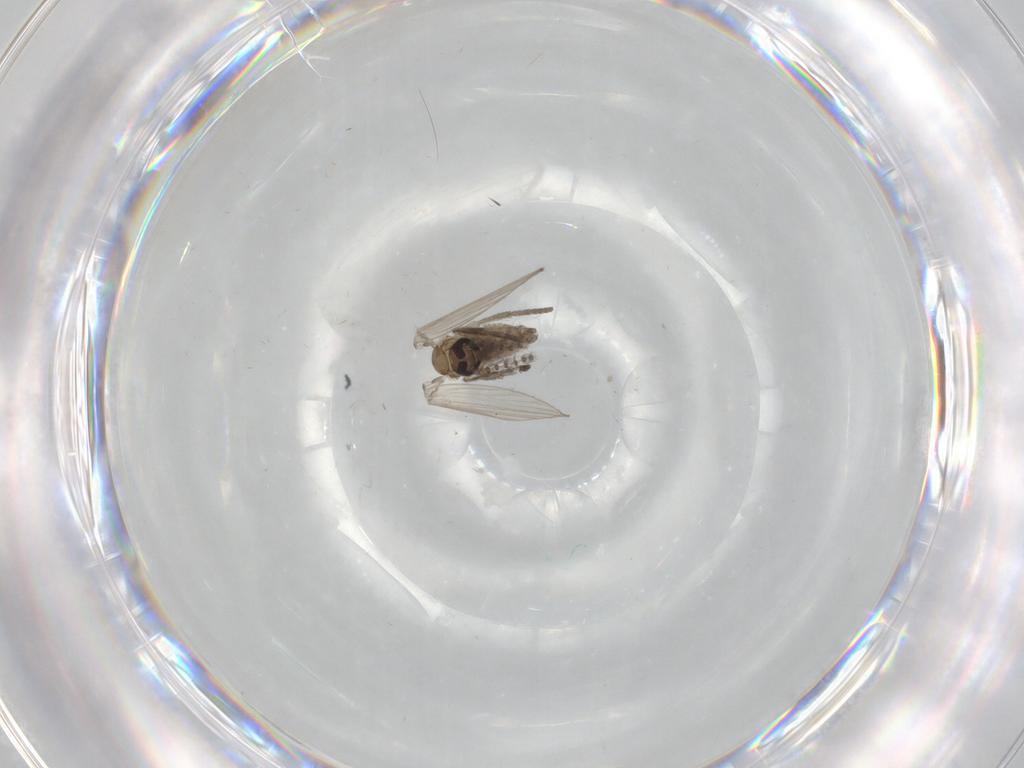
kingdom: Animalia
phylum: Arthropoda
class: Insecta
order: Diptera
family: Psychodidae
